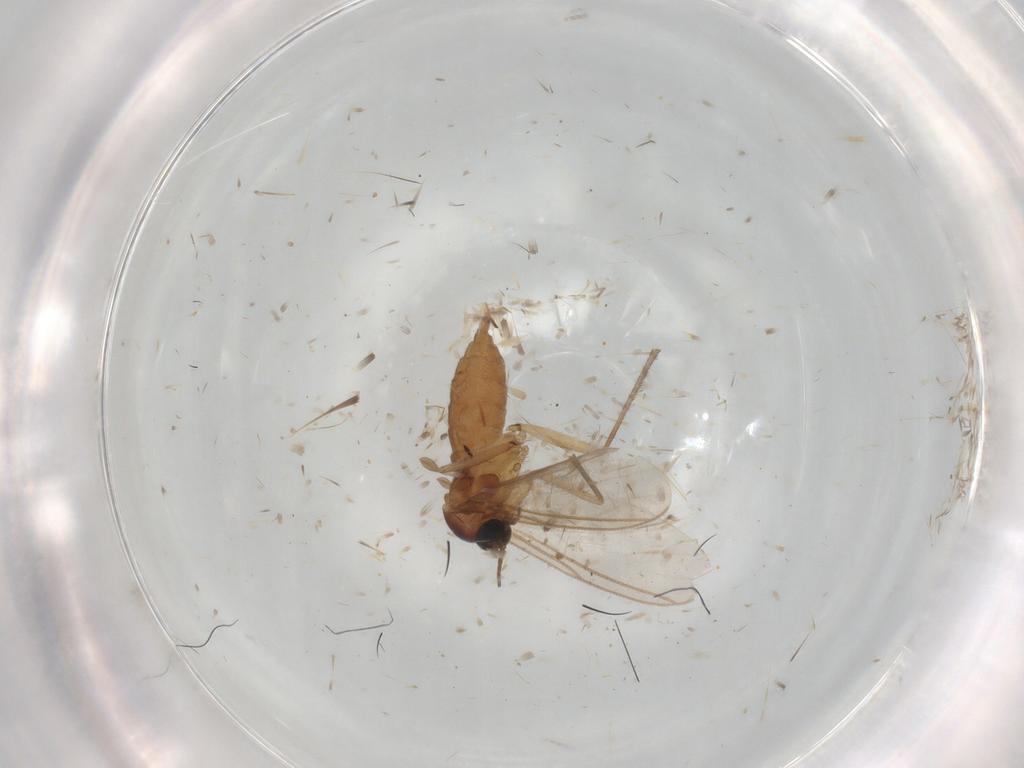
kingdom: Animalia
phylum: Arthropoda
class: Insecta
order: Diptera
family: Sciaridae
